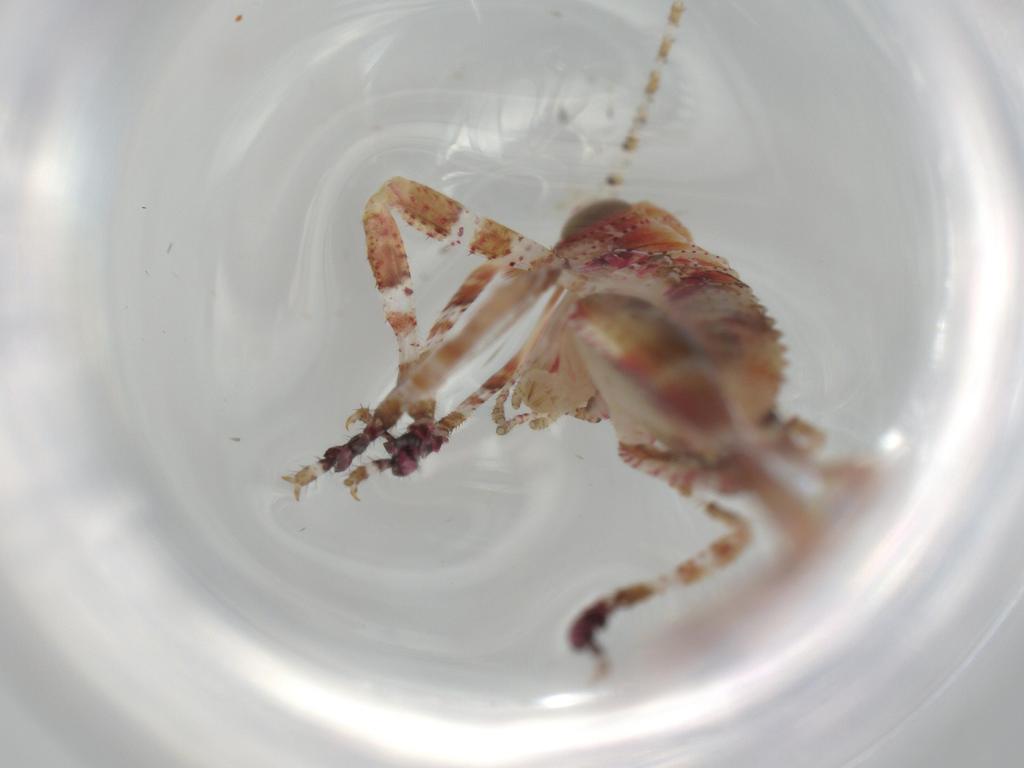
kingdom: Animalia
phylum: Arthropoda
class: Insecta
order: Orthoptera
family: Tettigoniidae
